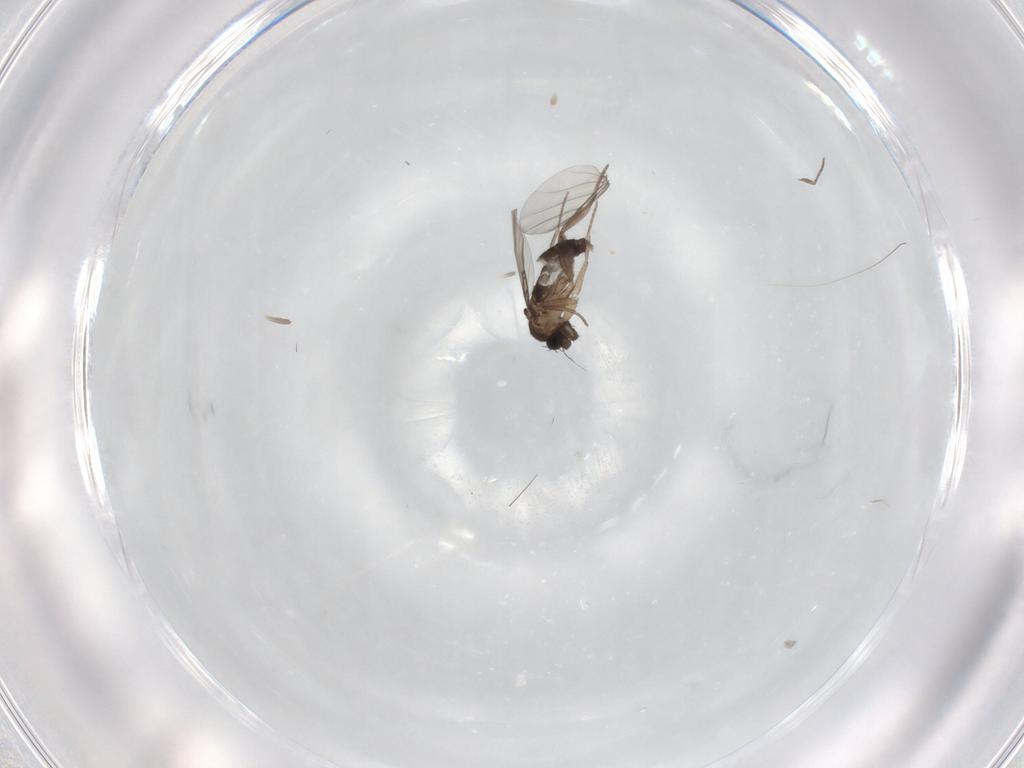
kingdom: Animalia
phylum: Arthropoda
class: Insecta
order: Diptera
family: Phoridae
